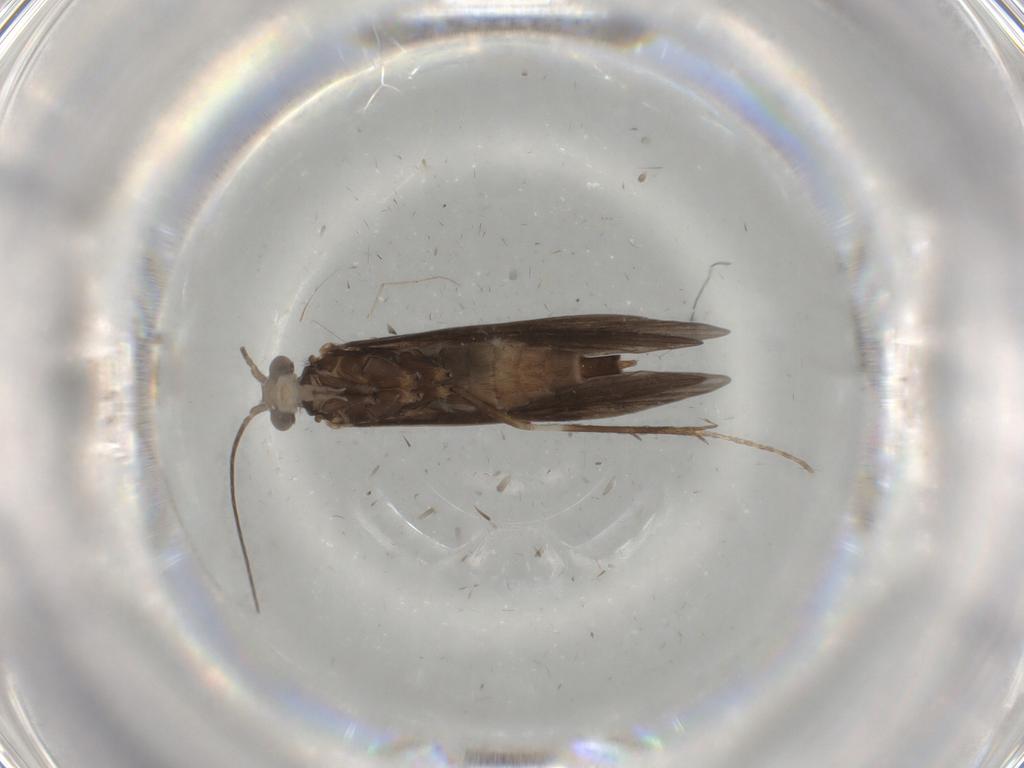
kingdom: Animalia
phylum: Arthropoda
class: Insecta
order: Trichoptera
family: Xiphocentronidae
